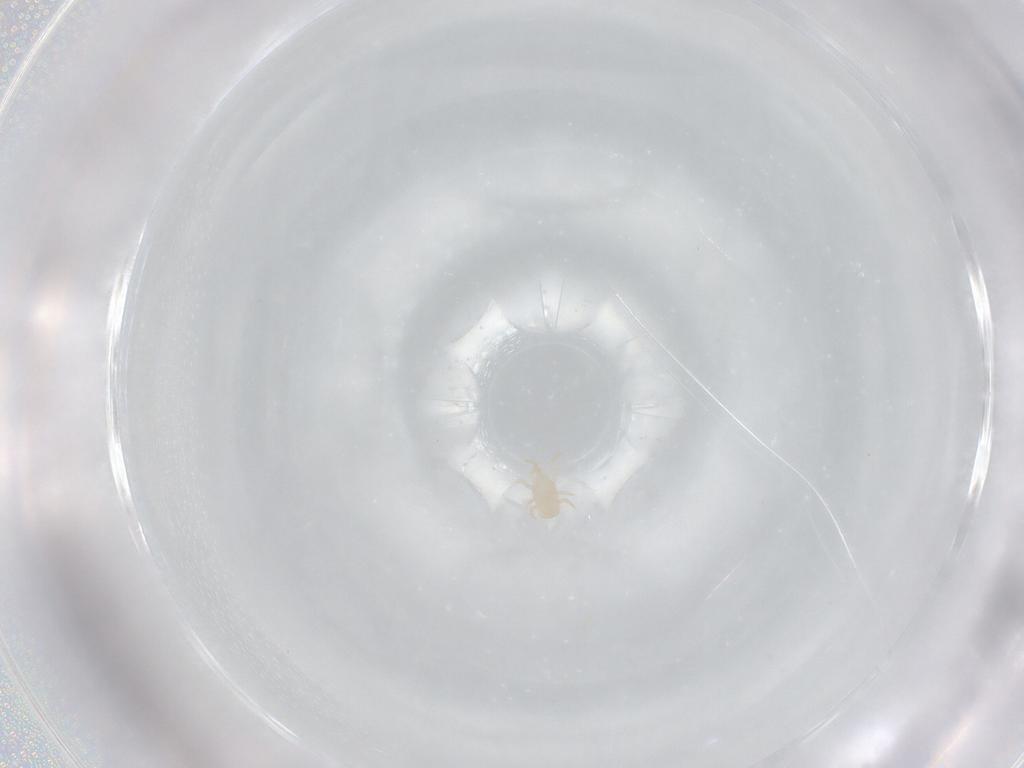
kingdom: Animalia
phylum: Arthropoda
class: Arachnida
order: Mesostigmata
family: Digamasellidae
